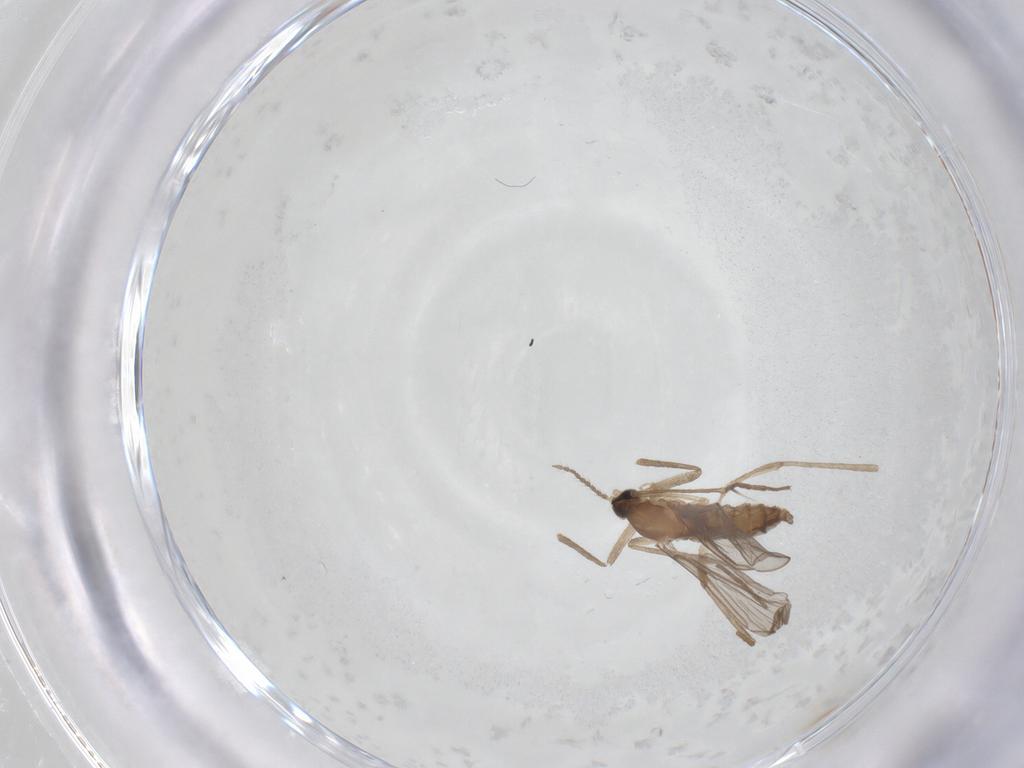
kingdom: Animalia
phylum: Arthropoda
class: Insecta
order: Diptera
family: Cecidomyiidae
